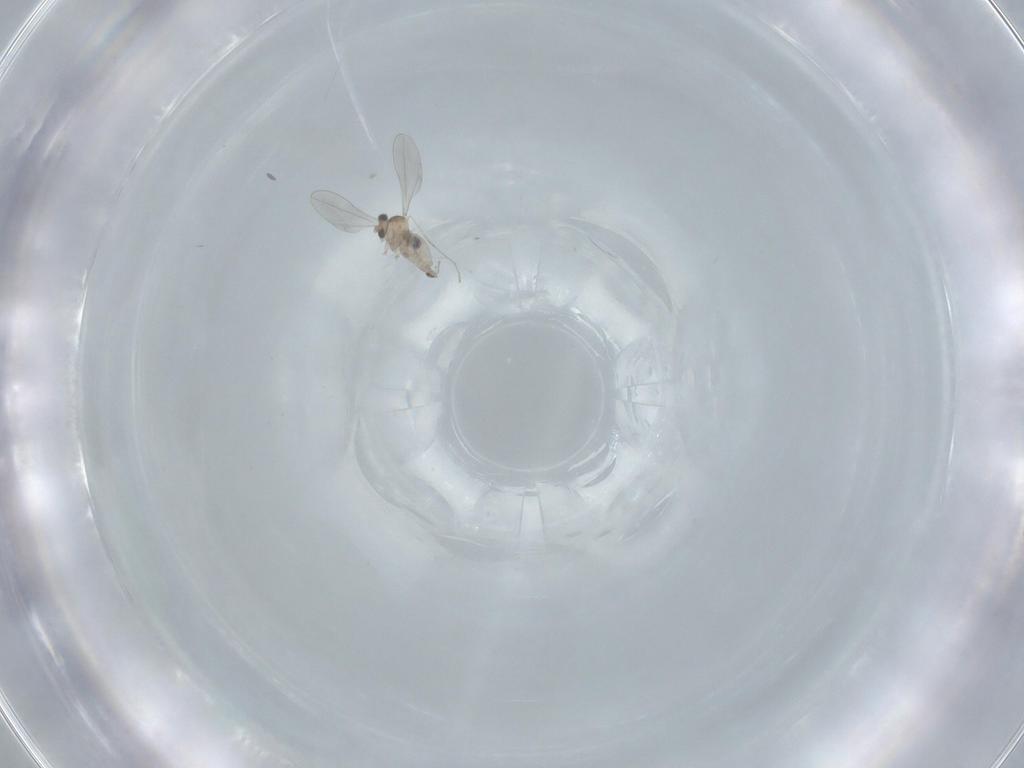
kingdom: Animalia
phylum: Arthropoda
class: Insecta
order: Diptera
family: Cecidomyiidae
